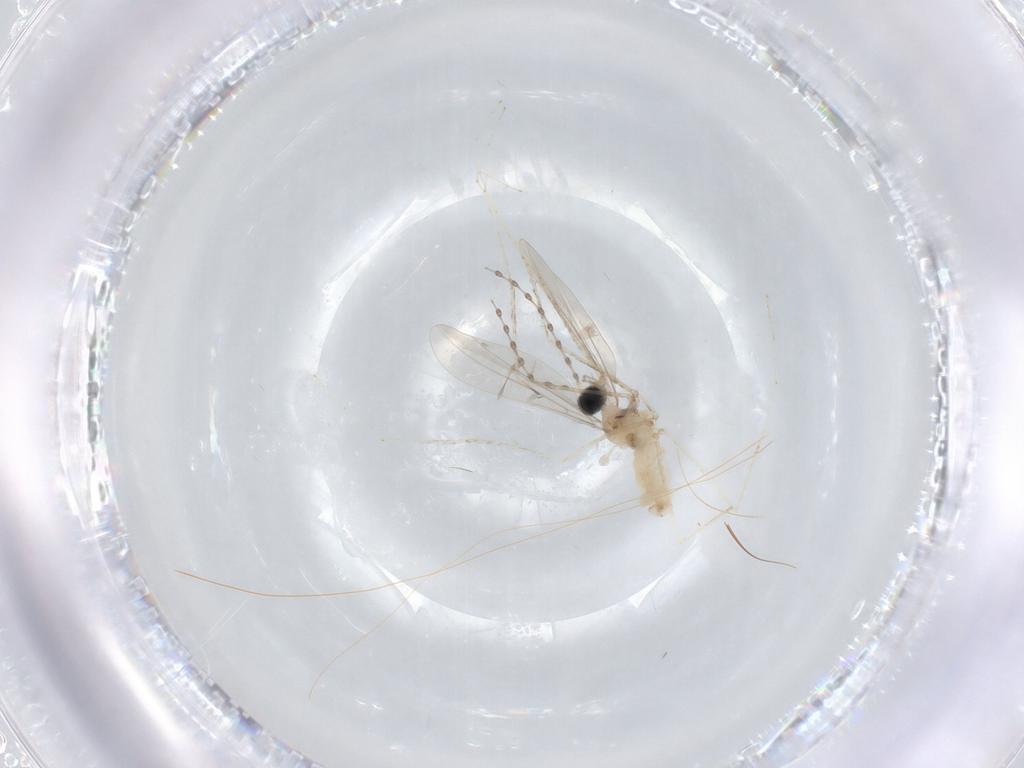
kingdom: Animalia
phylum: Arthropoda
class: Insecta
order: Diptera
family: Cecidomyiidae
